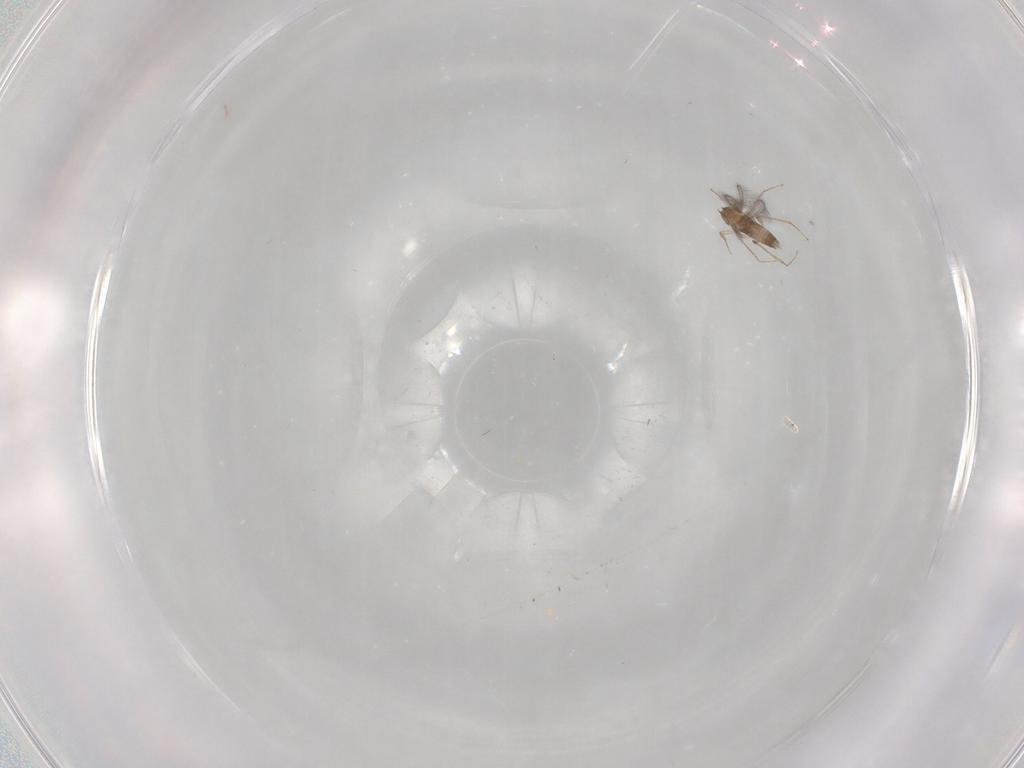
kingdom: Animalia
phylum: Arthropoda
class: Insecta
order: Hymenoptera
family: Mymaridae
